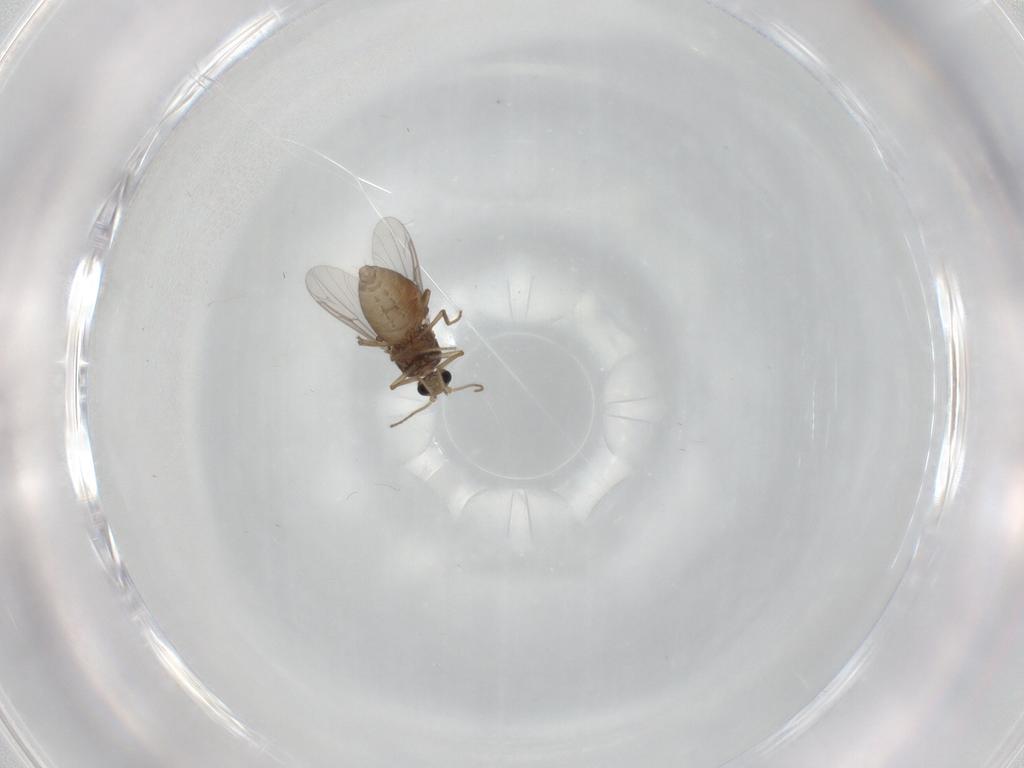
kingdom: Animalia
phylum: Arthropoda
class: Insecta
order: Diptera
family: Ceratopogonidae
